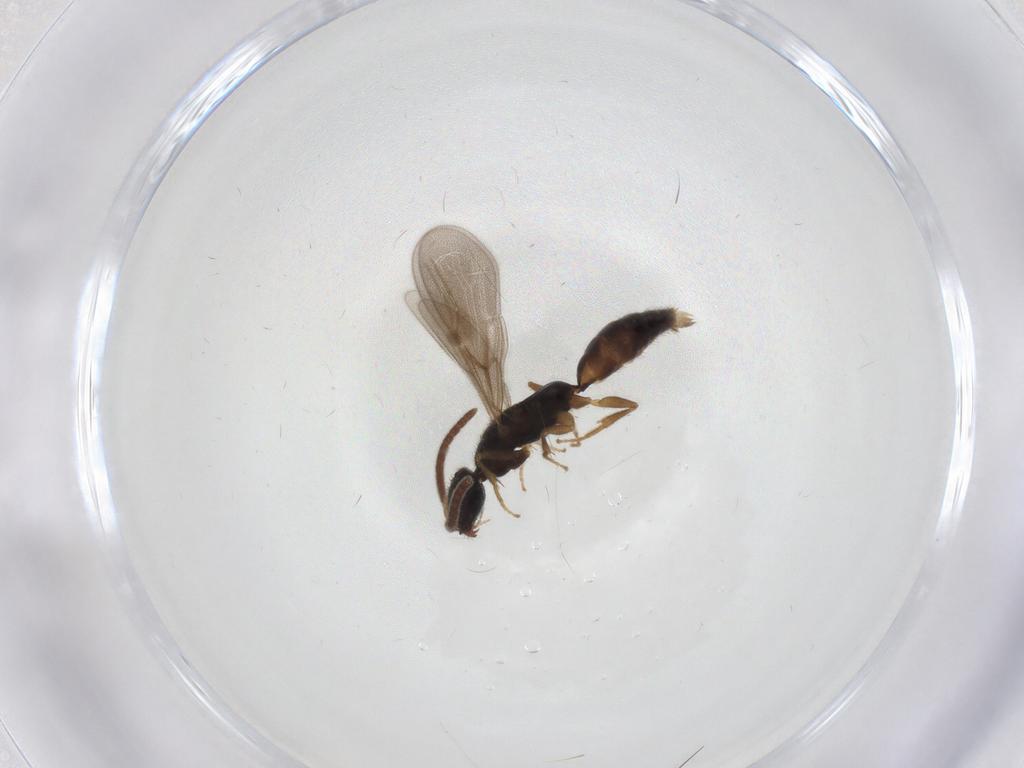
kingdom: Animalia
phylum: Arthropoda
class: Insecta
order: Hymenoptera
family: Bethylidae
